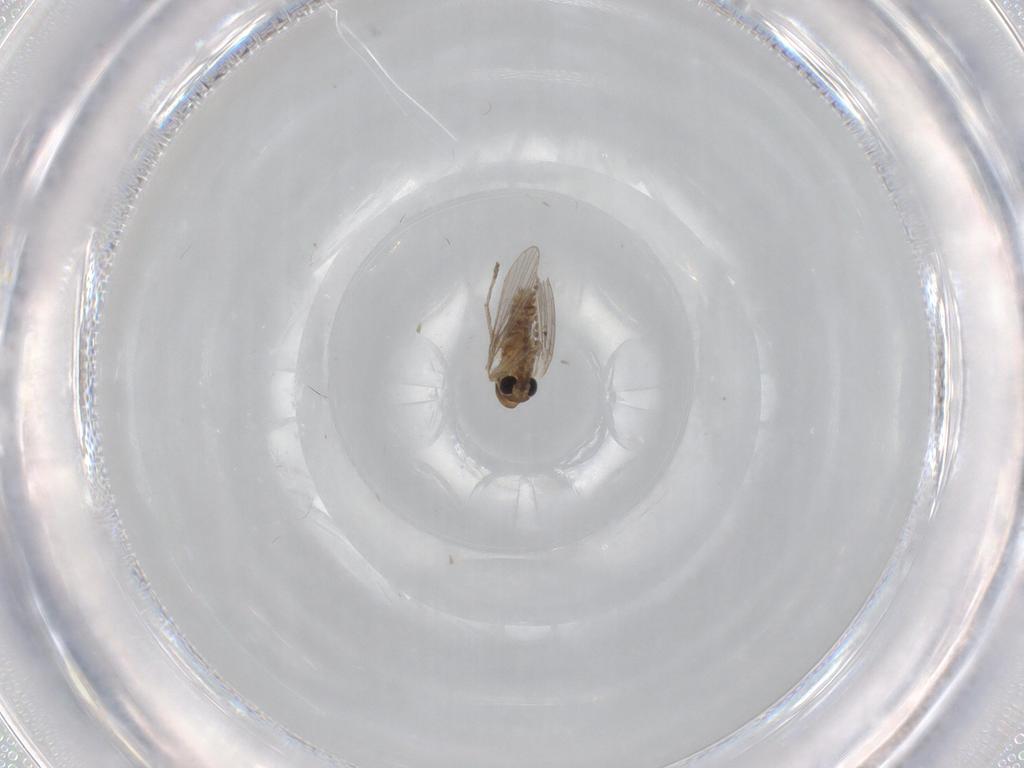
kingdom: Animalia
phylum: Arthropoda
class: Insecta
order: Diptera
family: Psychodidae
